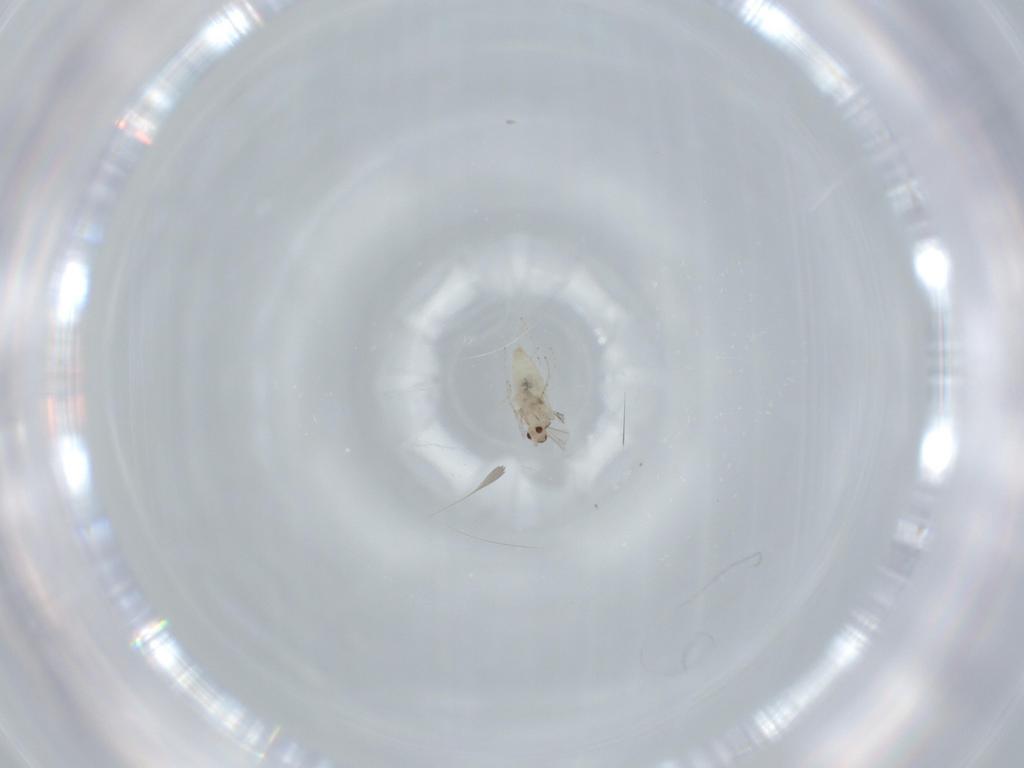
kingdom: Animalia
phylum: Arthropoda
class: Insecta
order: Diptera
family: Cecidomyiidae
